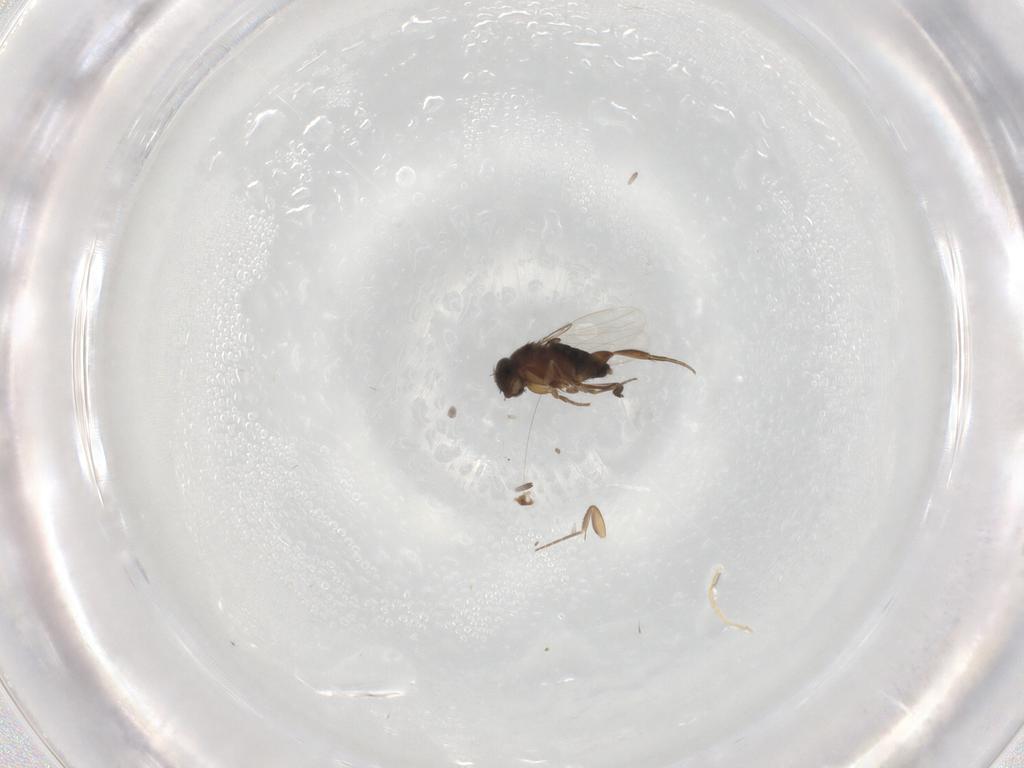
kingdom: Animalia
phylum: Arthropoda
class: Insecta
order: Diptera
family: Phoridae
